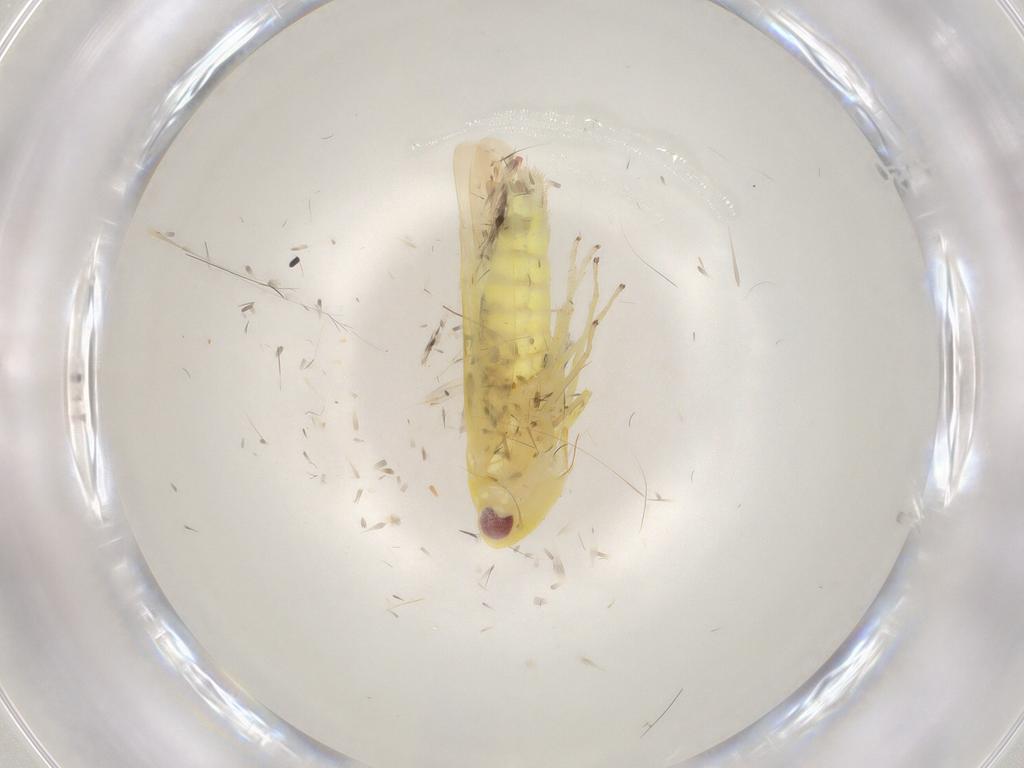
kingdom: Animalia
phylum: Arthropoda
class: Insecta
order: Hemiptera
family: Cicadellidae
